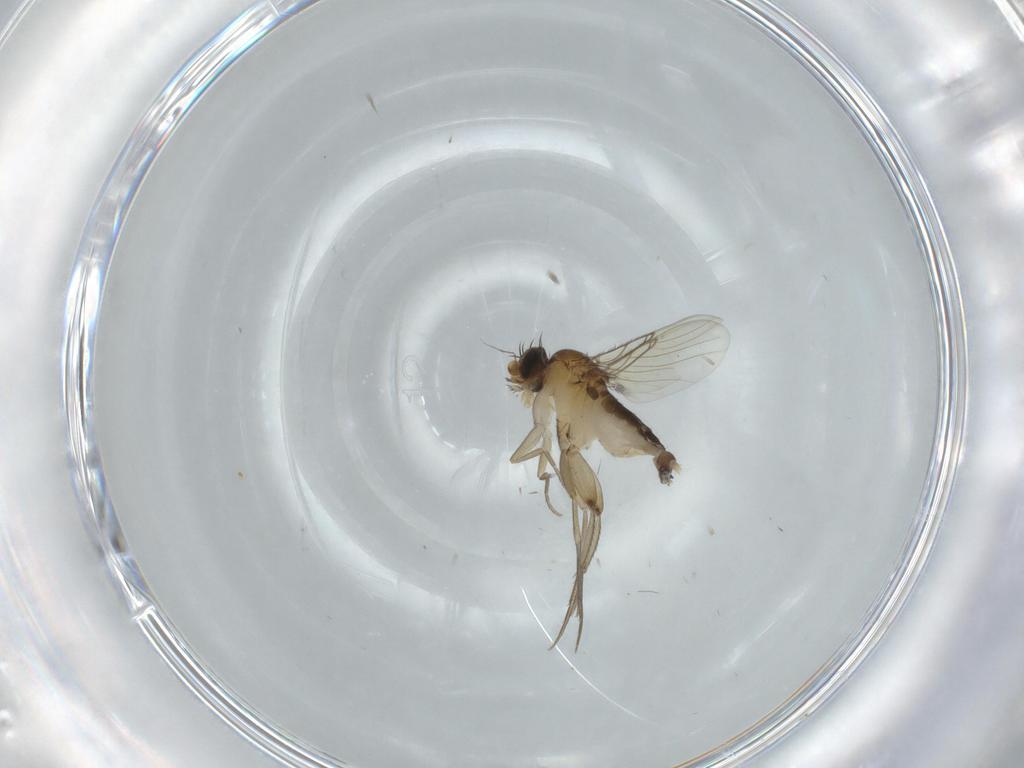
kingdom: Animalia
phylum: Arthropoda
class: Insecta
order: Diptera
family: Phoridae
